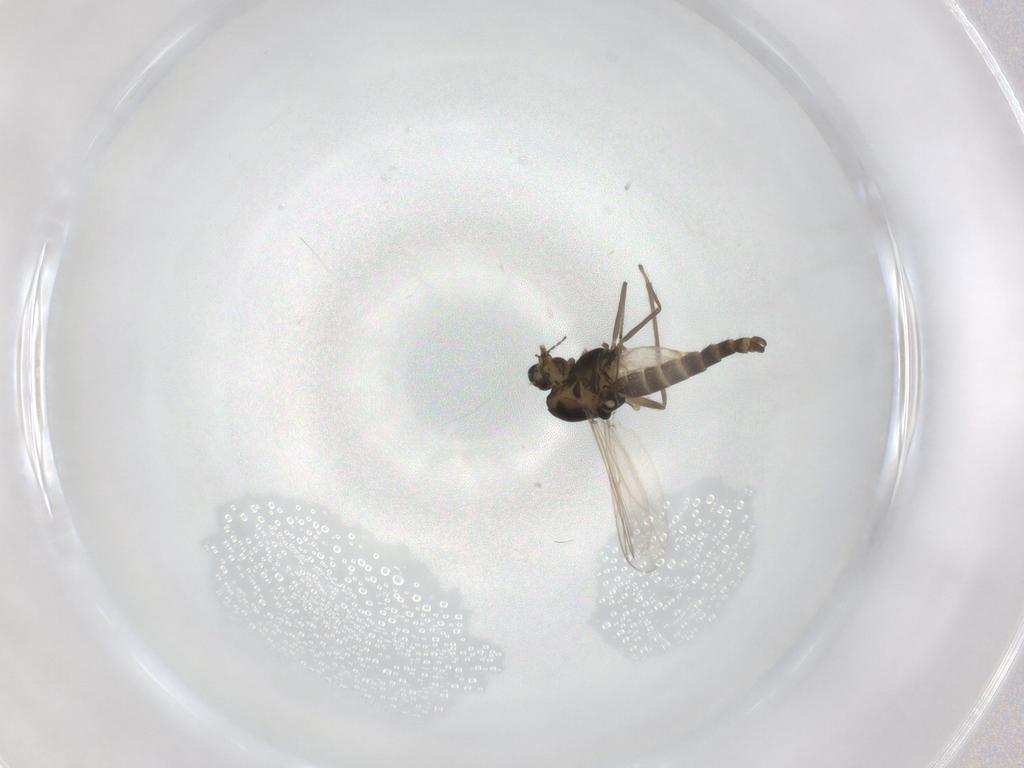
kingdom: Animalia
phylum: Arthropoda
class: Insecta
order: Diptera
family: Chironomidae
